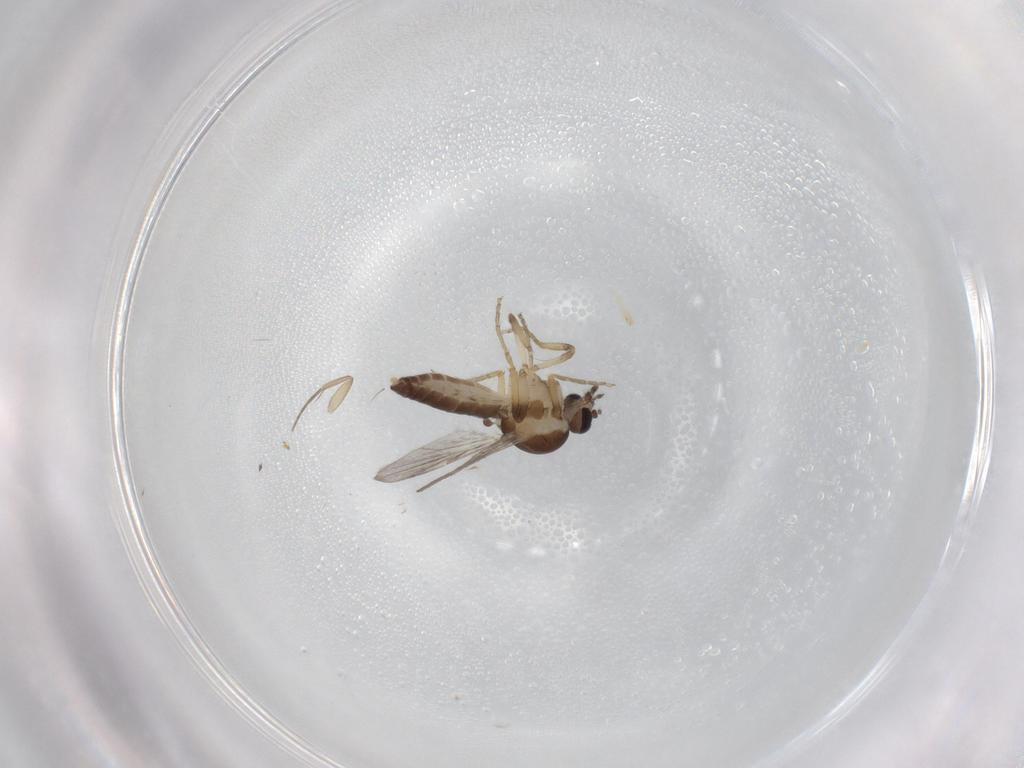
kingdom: Animalia
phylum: Arthropoda
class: Insecta
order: Diptera
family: Ceratopogonidae
